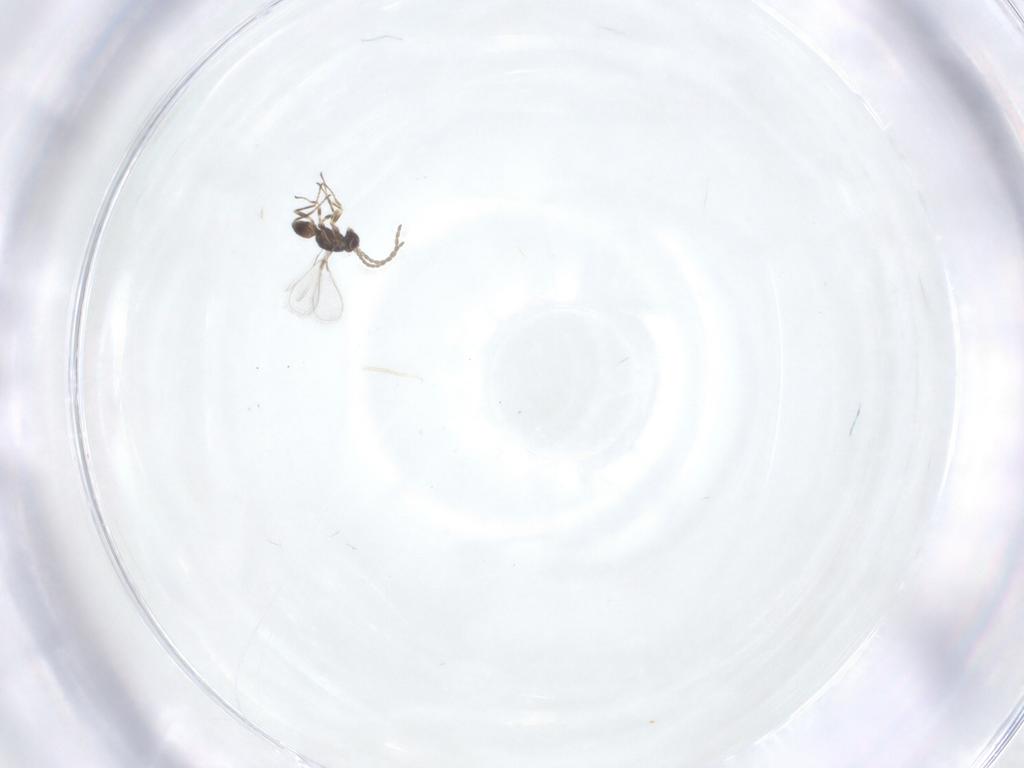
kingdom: Animalia
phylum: Arthropoda
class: Insecta
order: Hymenoptera
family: Mymaridae
